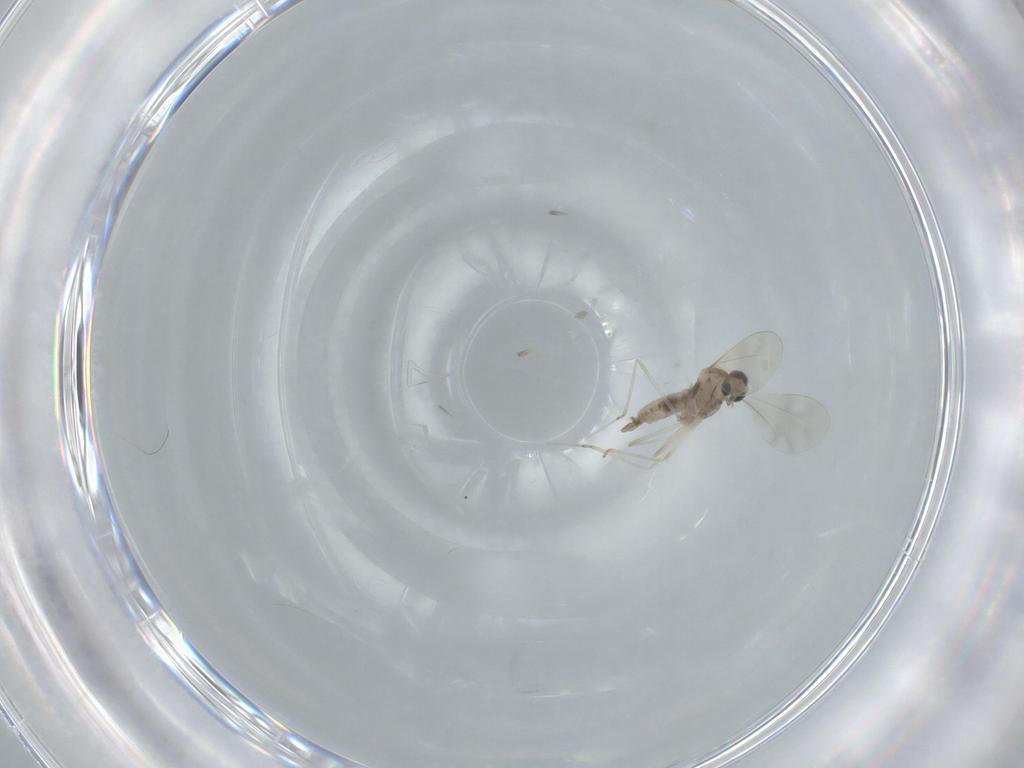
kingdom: Animalia
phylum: Arthropoda
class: Insecta
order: Diptera
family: Cecidomyiidae
